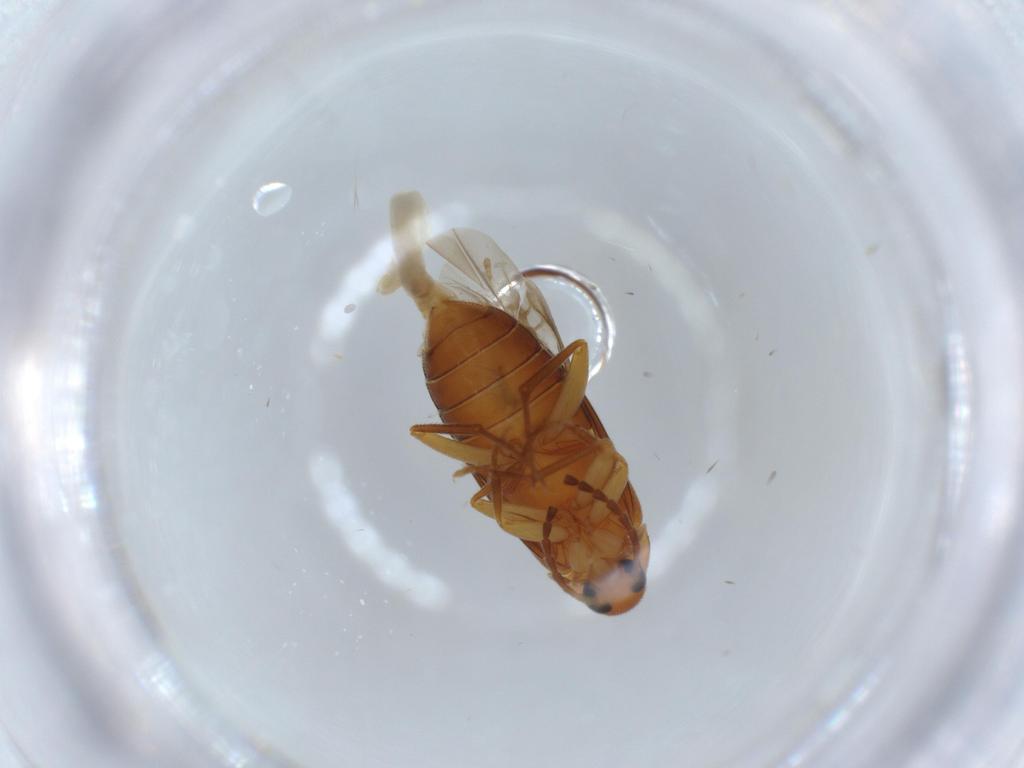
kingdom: Animalia
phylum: Arthropoda
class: Insecta
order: Coleoptera
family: Scraptiidae
